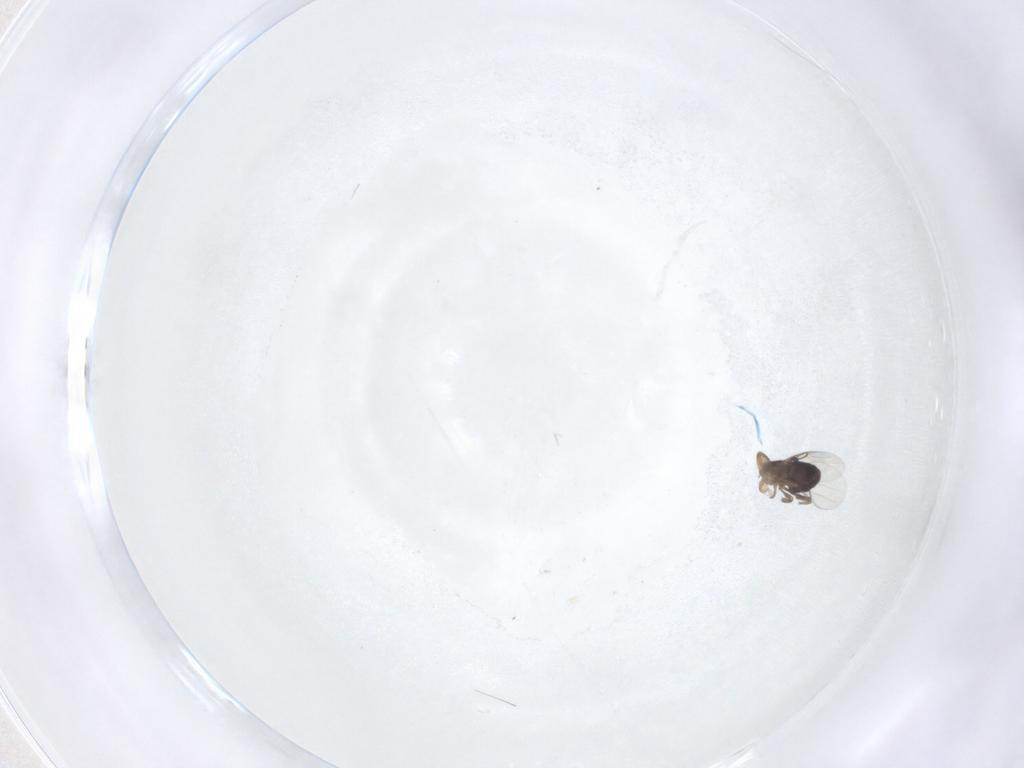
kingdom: Animalia
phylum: Arthropoda
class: Insecta
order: Diptera
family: Phoridae
